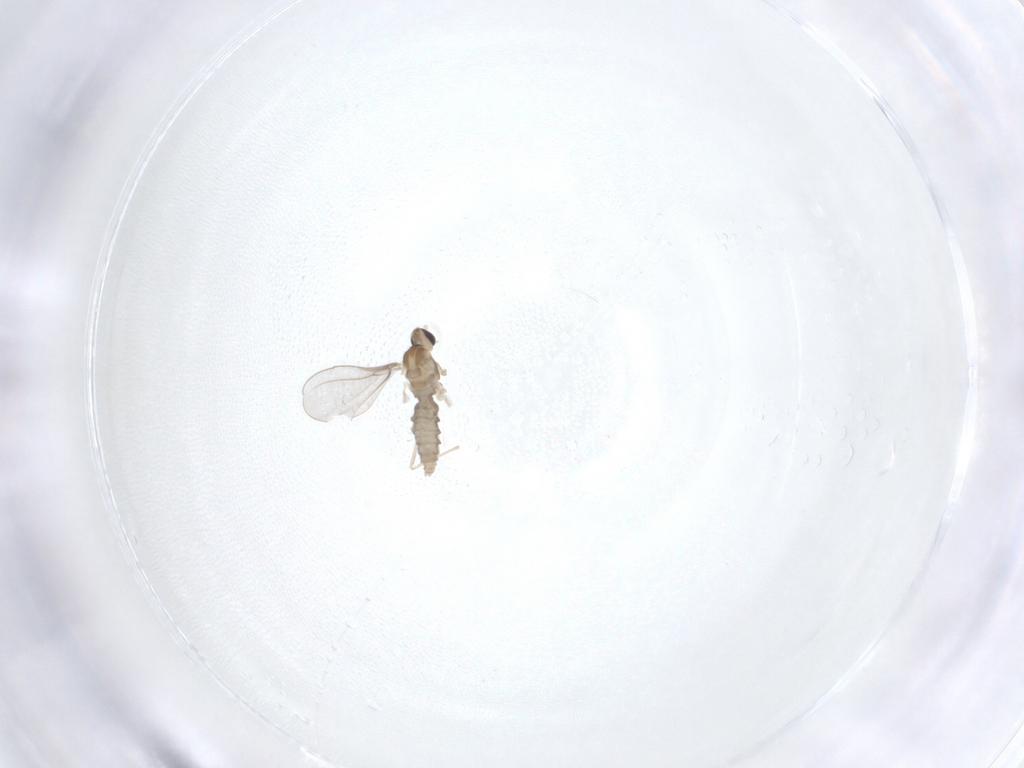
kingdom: Animalia
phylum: Arthropoda
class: Insecta
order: Diptera
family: Cecidomyiidae
